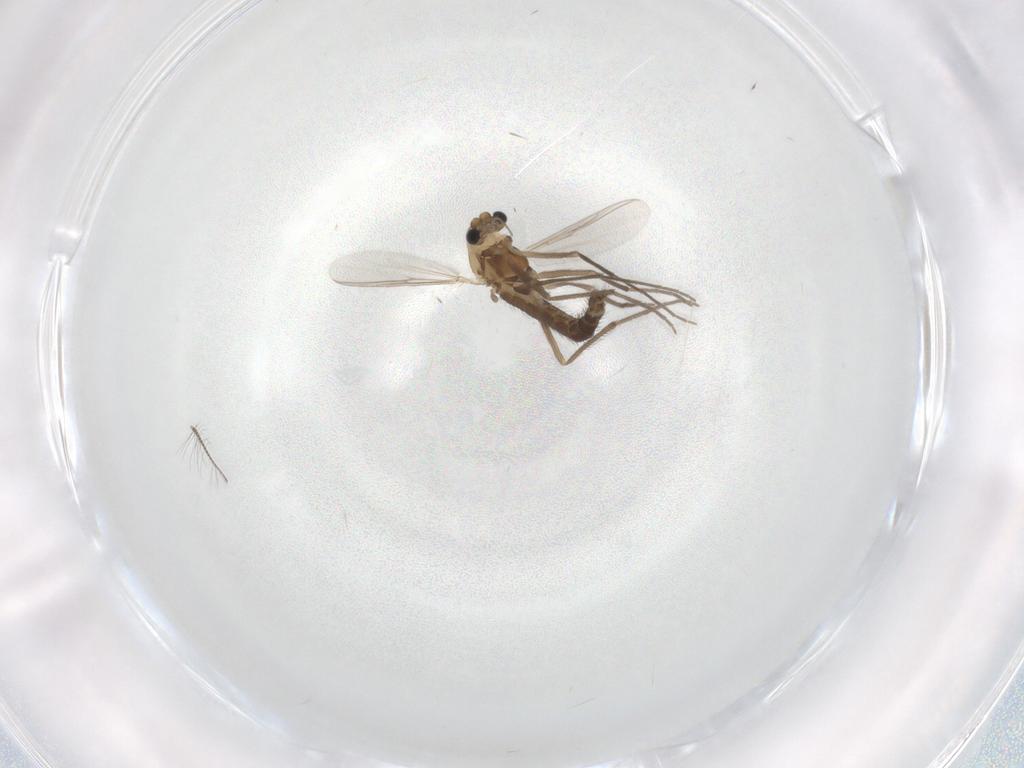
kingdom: Animalia
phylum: Arthropoda
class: Insecta
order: Diptera
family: Chironomidae
